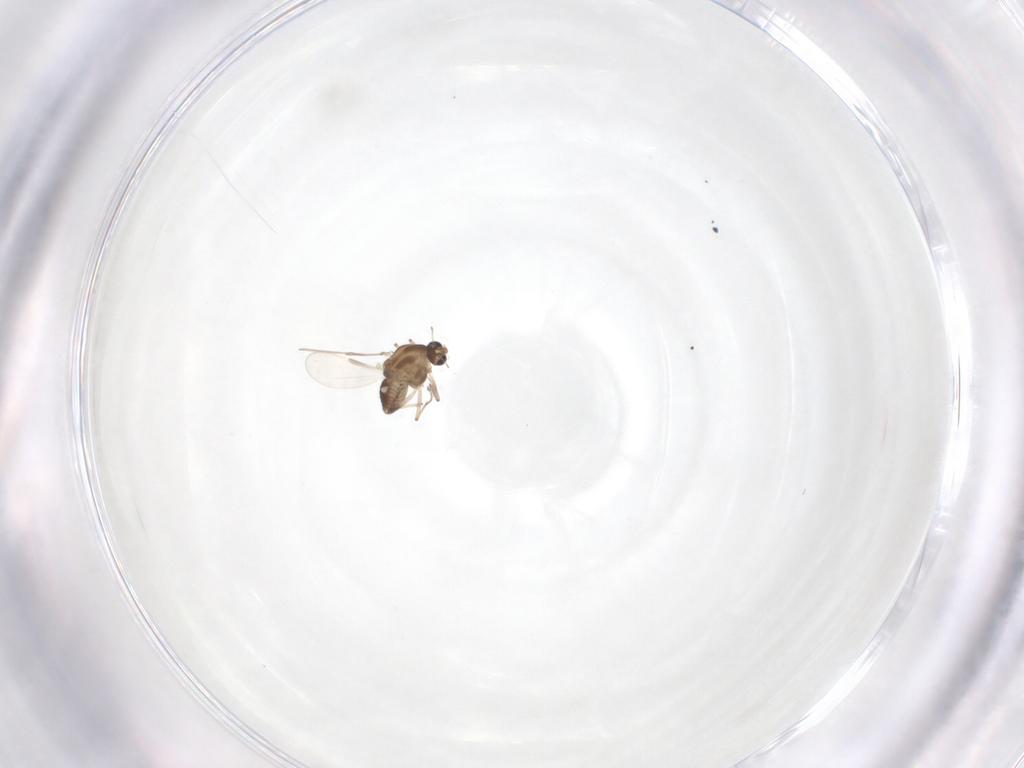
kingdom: Animalia
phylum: Arthropoda
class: Insecta
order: Diptera
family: Chironomidae
